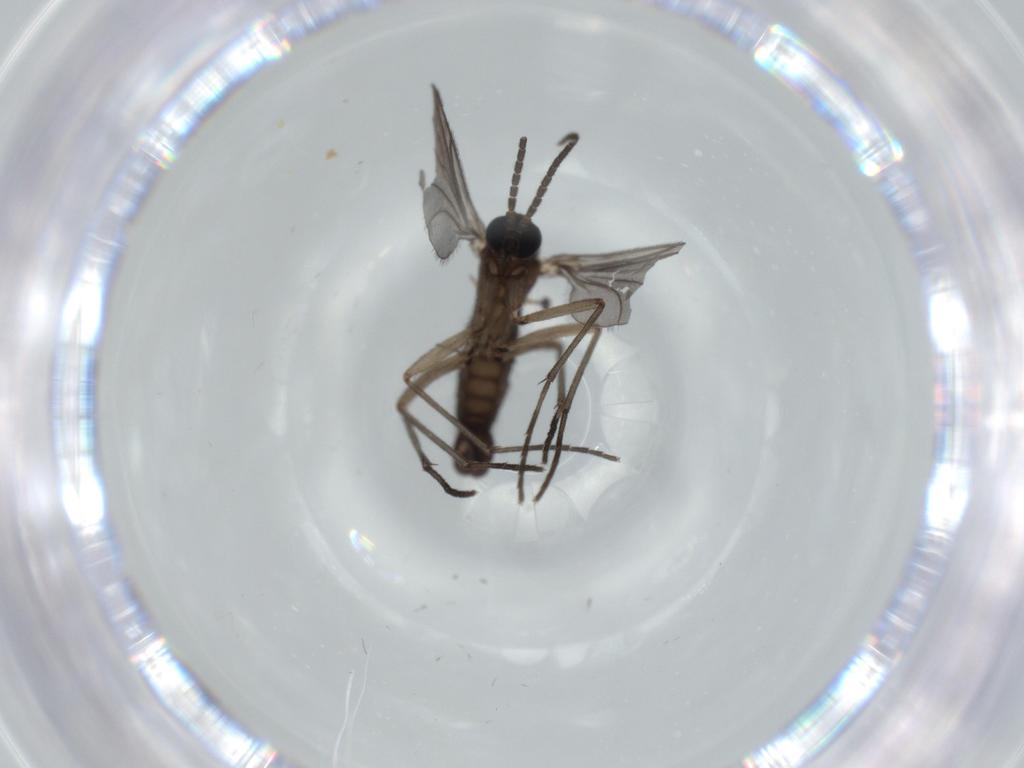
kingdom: Animalia
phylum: Arthropoda
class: Insecta
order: Diptera
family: Sciaridae
